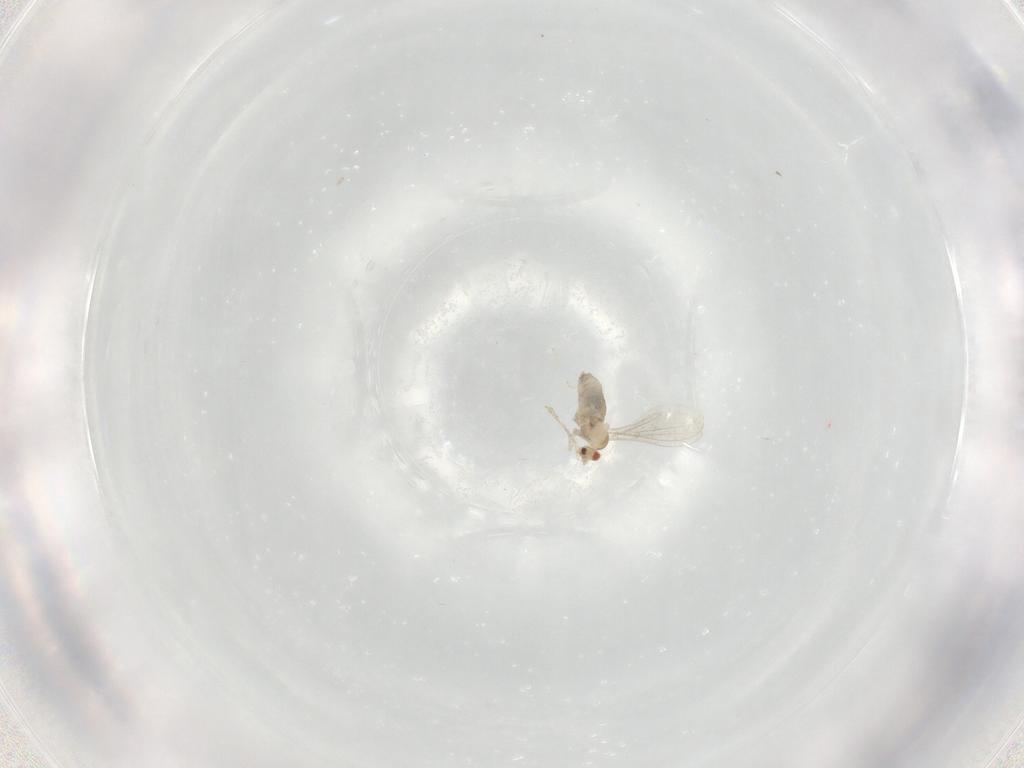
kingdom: Animalia
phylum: Arthropoda
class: Insecta
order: Diptera
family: Cecidomyiidae
